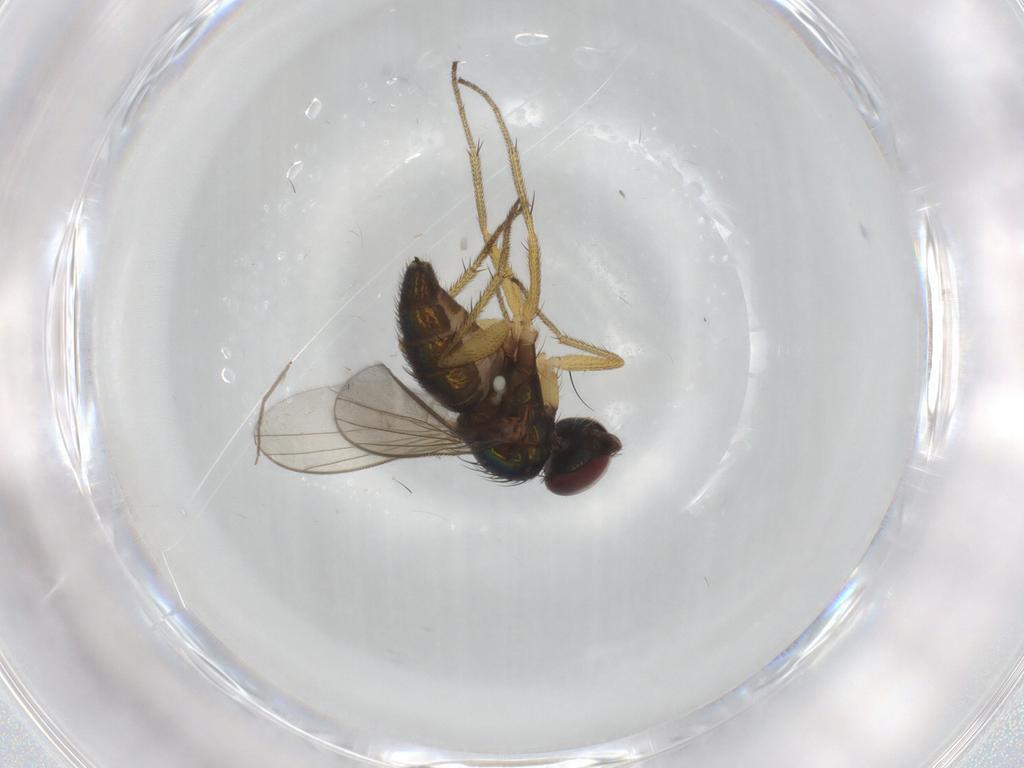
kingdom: Animalia
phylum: Arthropoda
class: Insecta
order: Diptera
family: Dolichopodidae
